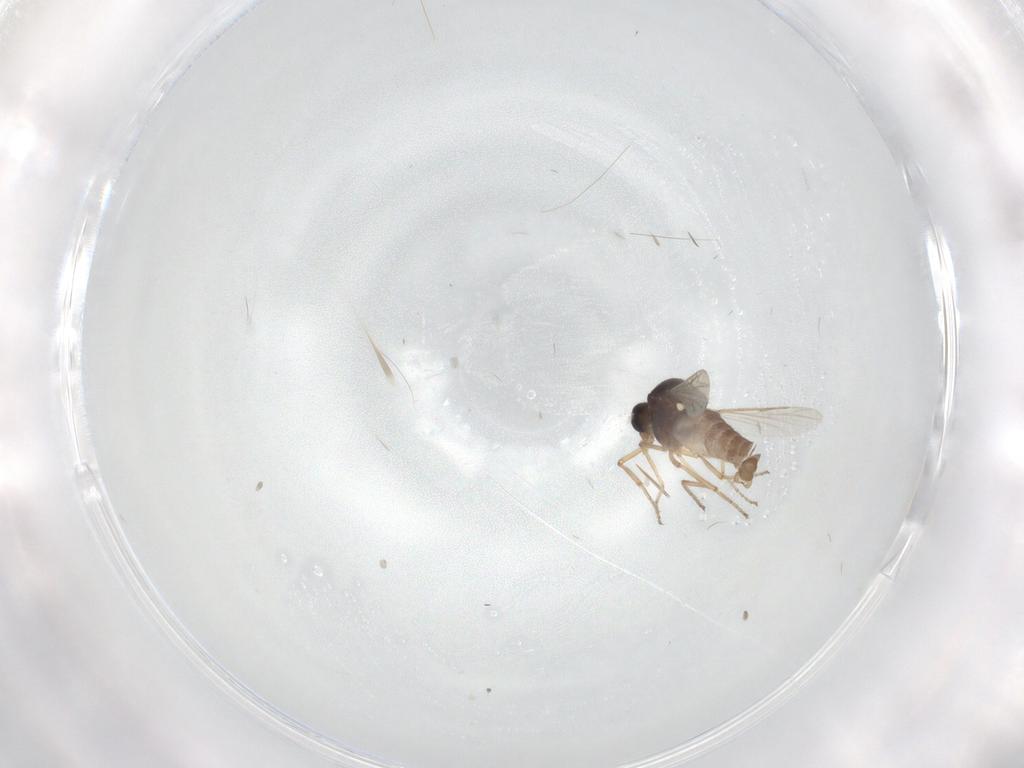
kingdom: Animalia
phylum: Arthropoda
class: Insecta
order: Diptera
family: Ceratopogonidae
